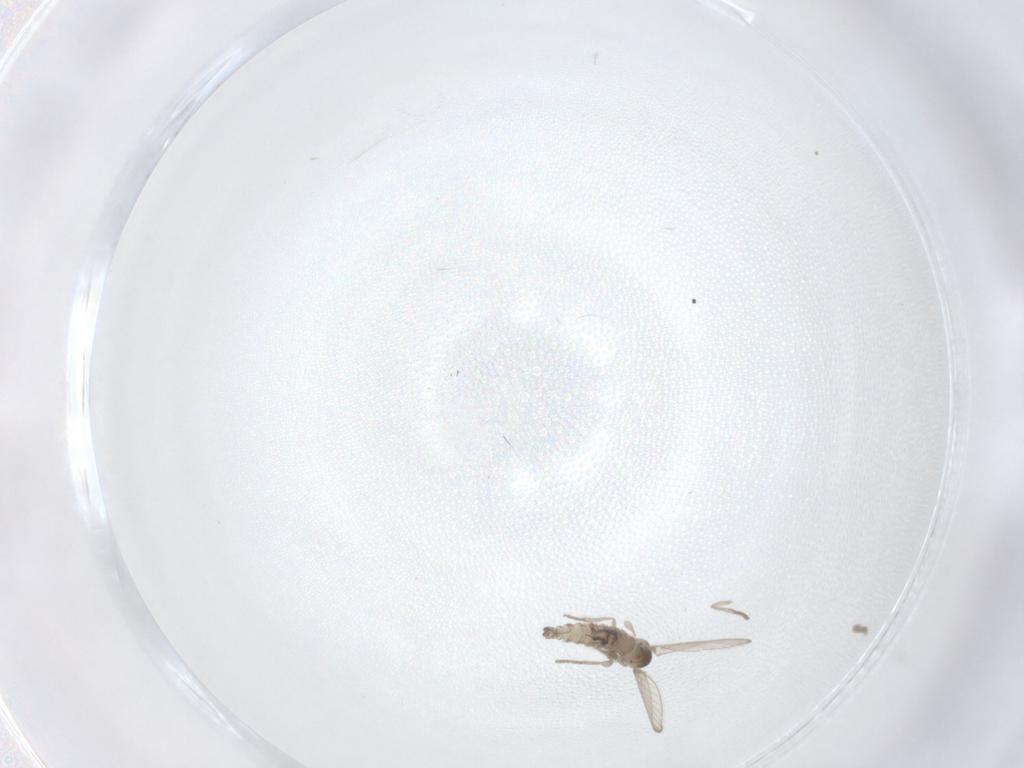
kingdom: Animalia
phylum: Arthropoda
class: Insecta
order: Diptera
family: Psychodidae
